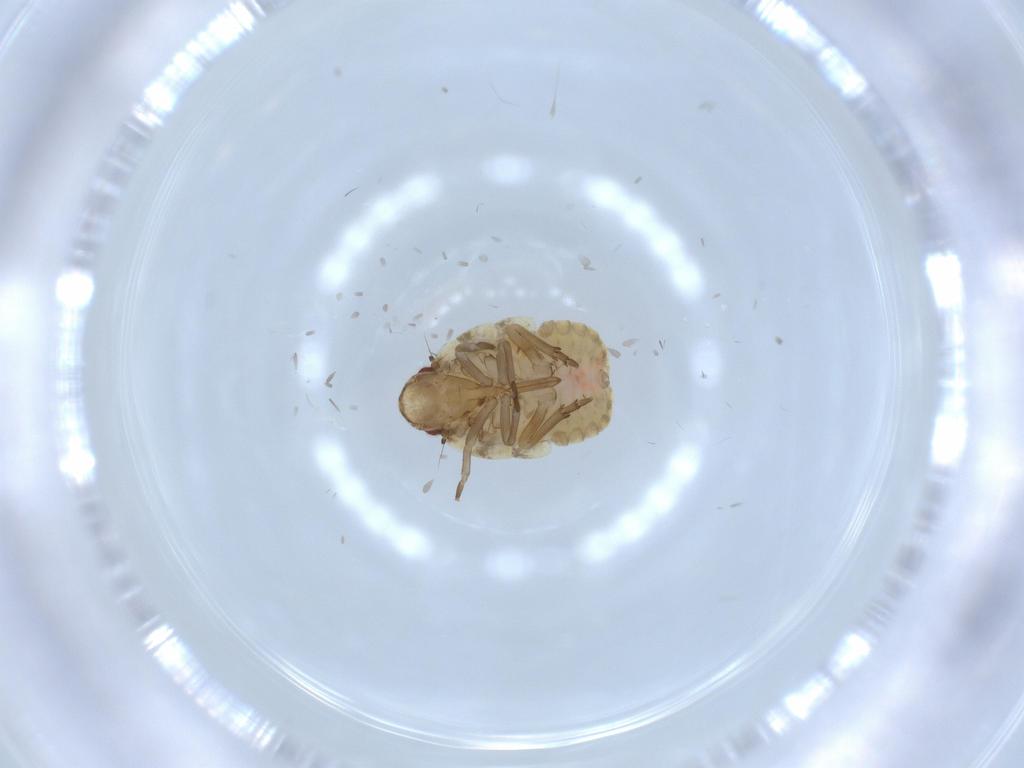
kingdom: Animalia
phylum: Arthropoda
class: Insecta
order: Hemiptera
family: Flatidae
